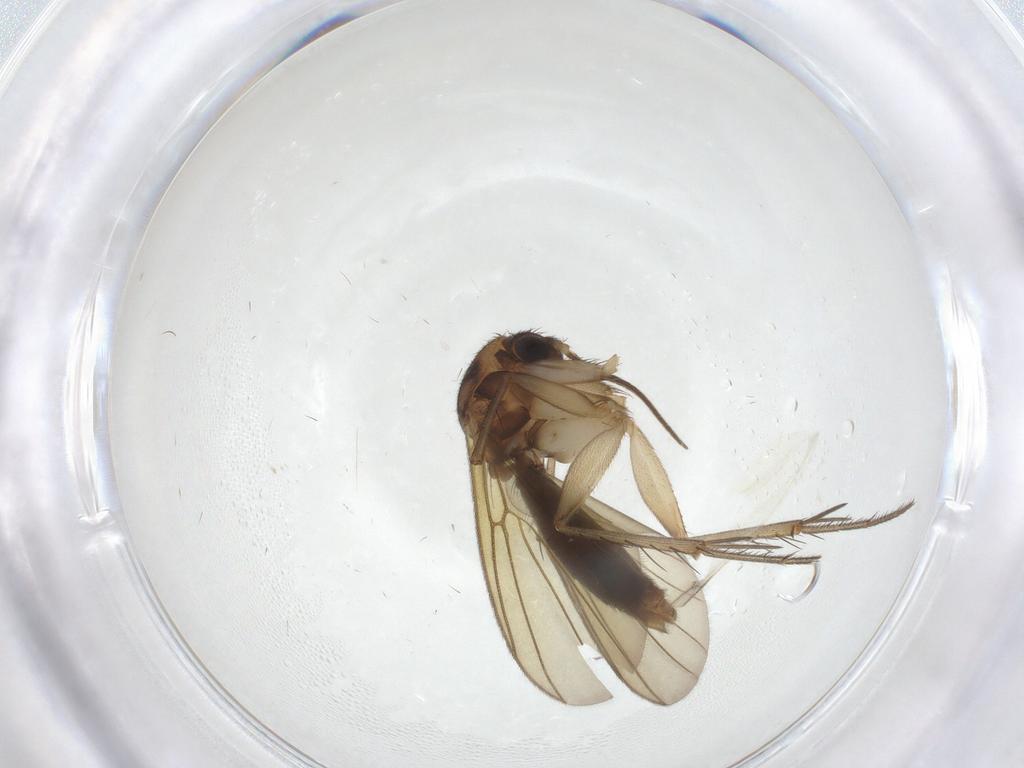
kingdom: Animalia
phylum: Arthropoda
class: Insecta
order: Diptera
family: Mycetophilidae
